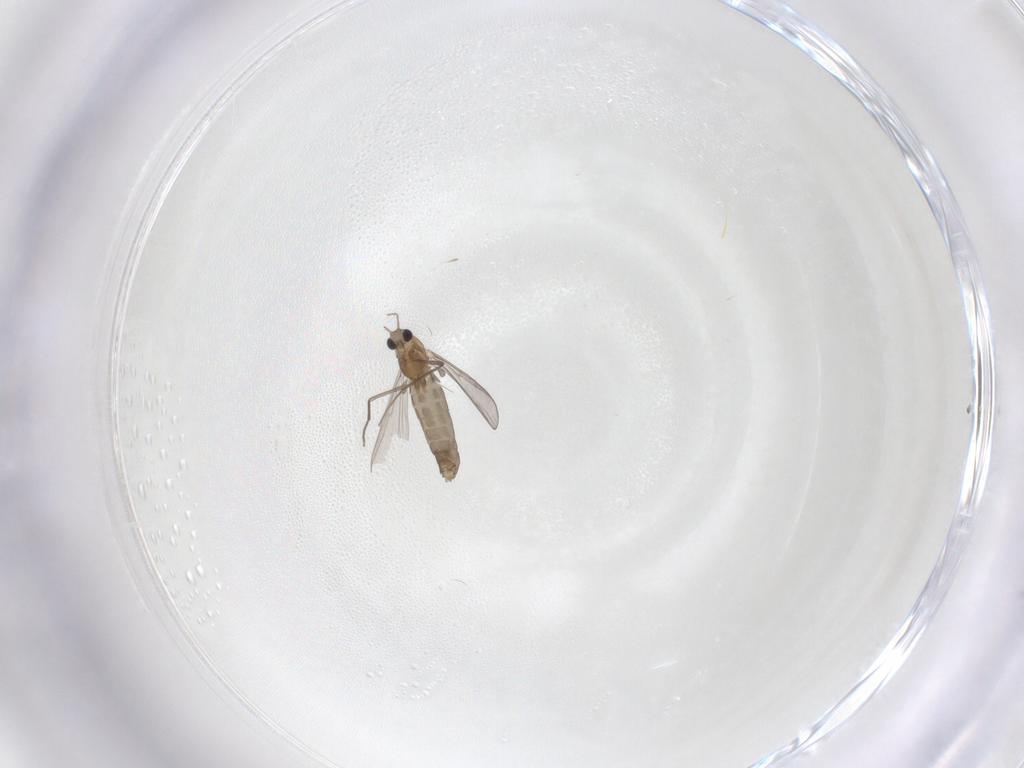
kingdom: Animalia
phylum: Arthropoda
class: Insecta
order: Diptera
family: Chironomidae
